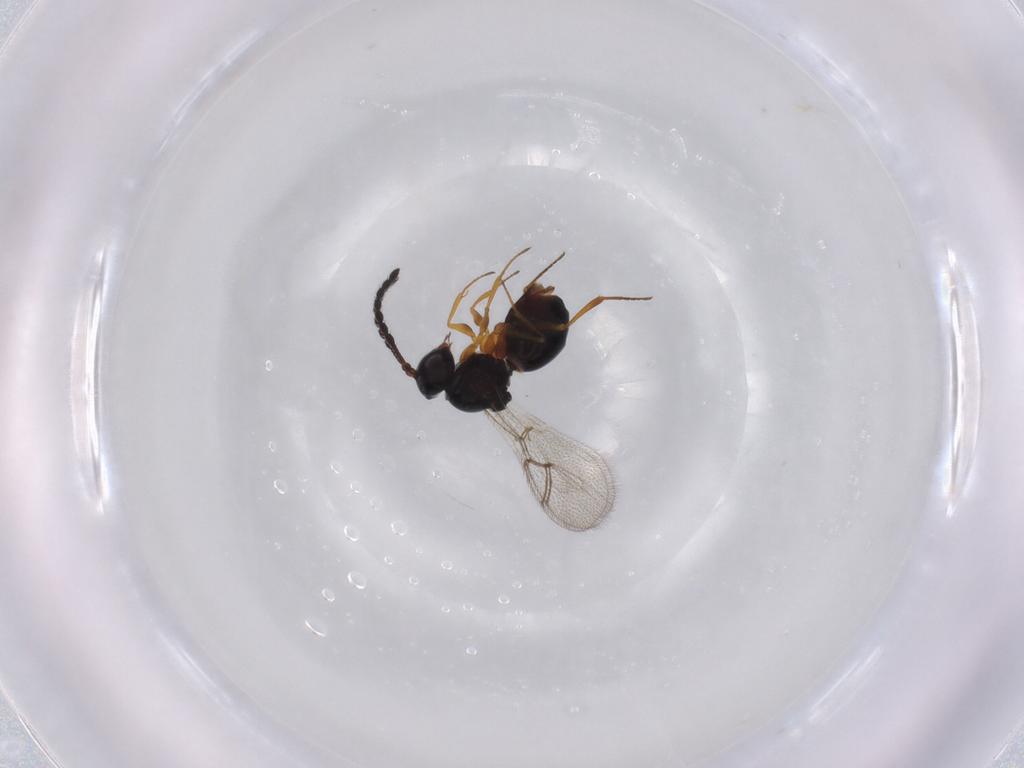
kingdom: Animalia
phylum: Arthropoda
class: Insecta
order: Hymenoptera
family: Figitidae
